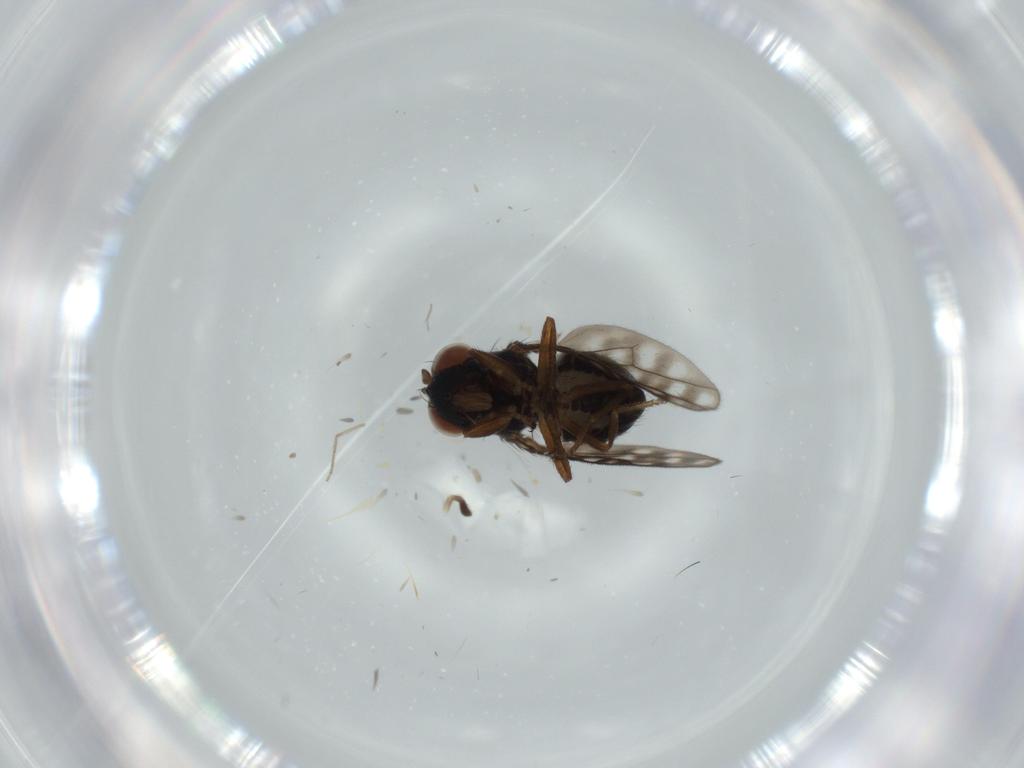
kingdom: Animalia
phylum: Arthropoda
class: Insecta
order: Diptera
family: Ephydridae
